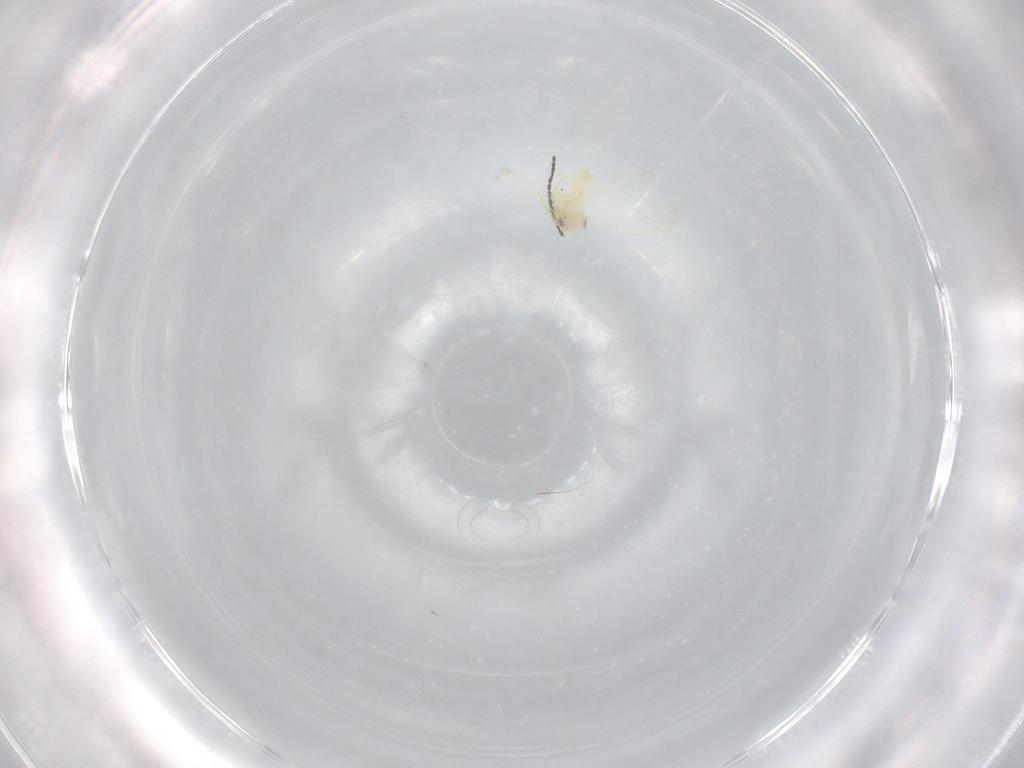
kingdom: Animalia
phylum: Arthropoda
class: Insecta
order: Hemiptera
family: Aleyrodidae
